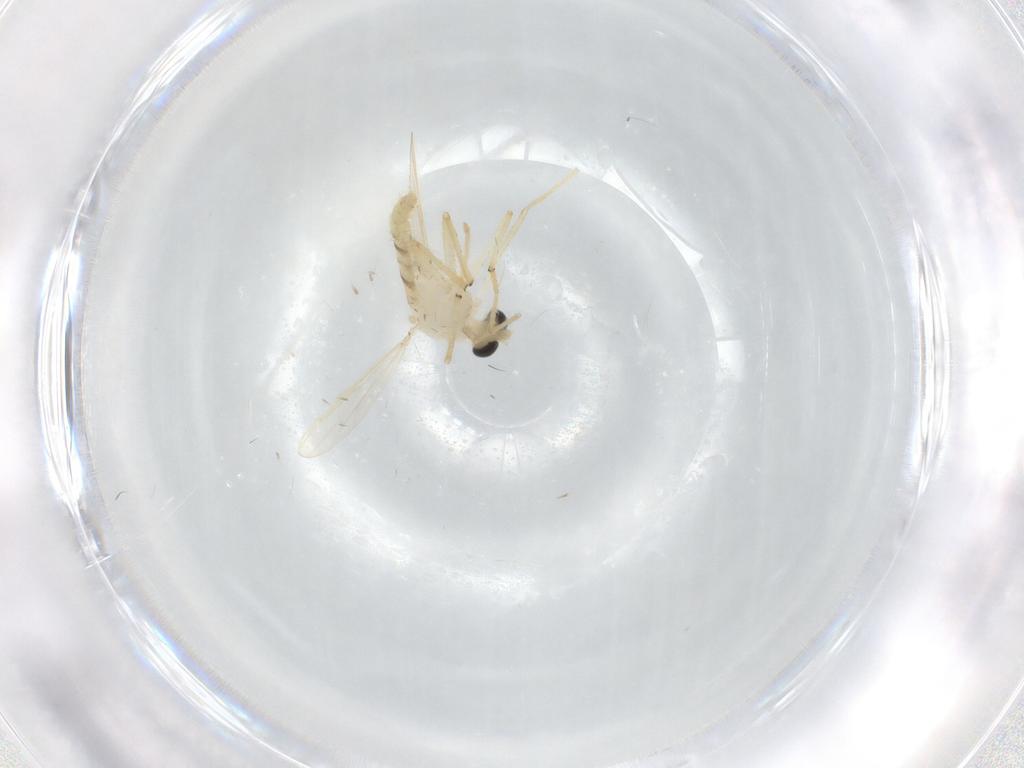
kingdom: Animalia
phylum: Arthropoda
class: Insecta
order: Diptera
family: Chironomidae
